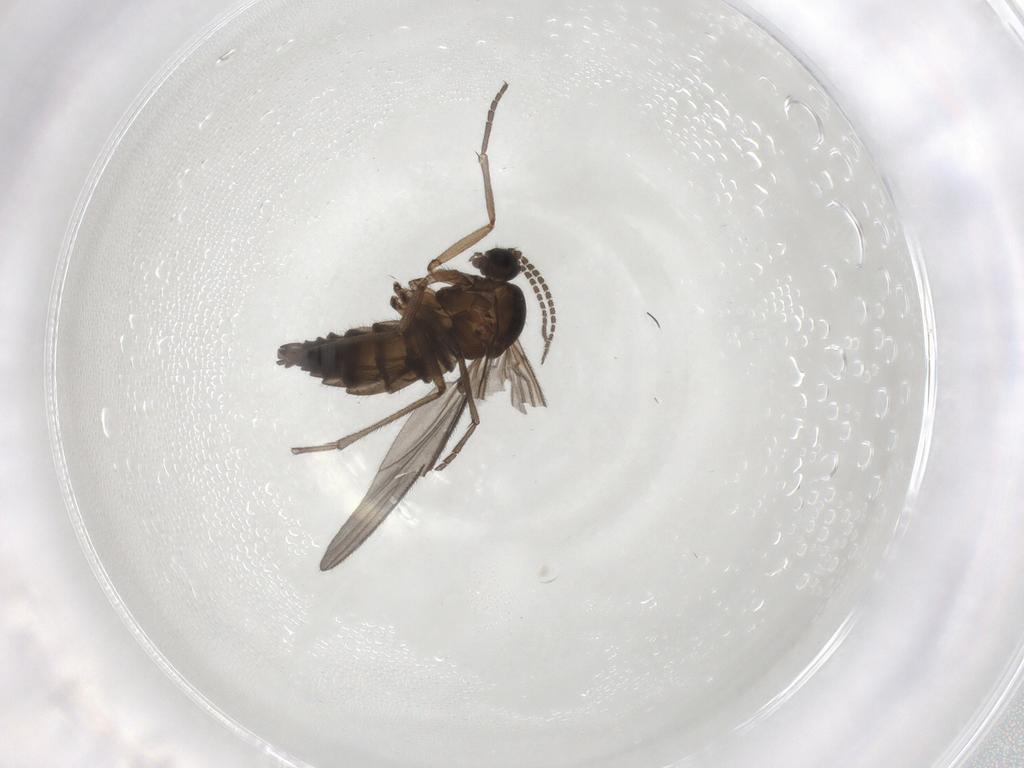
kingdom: Animalia
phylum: Arthropoda
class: Insecta
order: Diptera
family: Sciaridae
